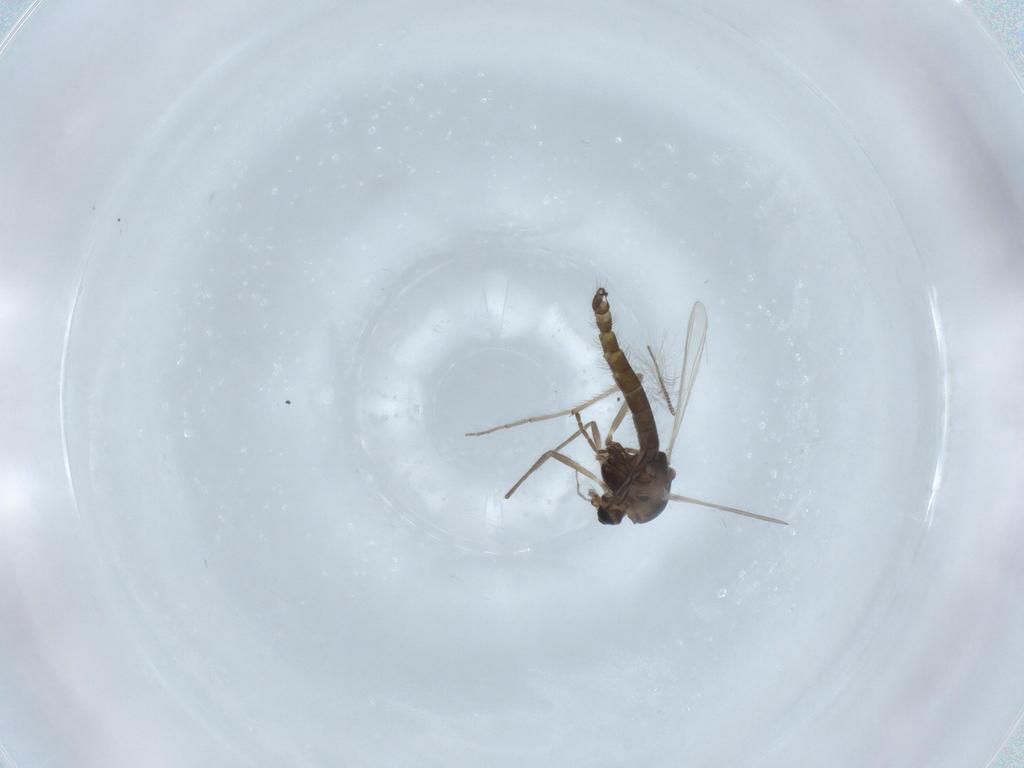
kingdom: Animalia
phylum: Arthropoda
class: Insecta
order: Diptera
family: Chironomidae
